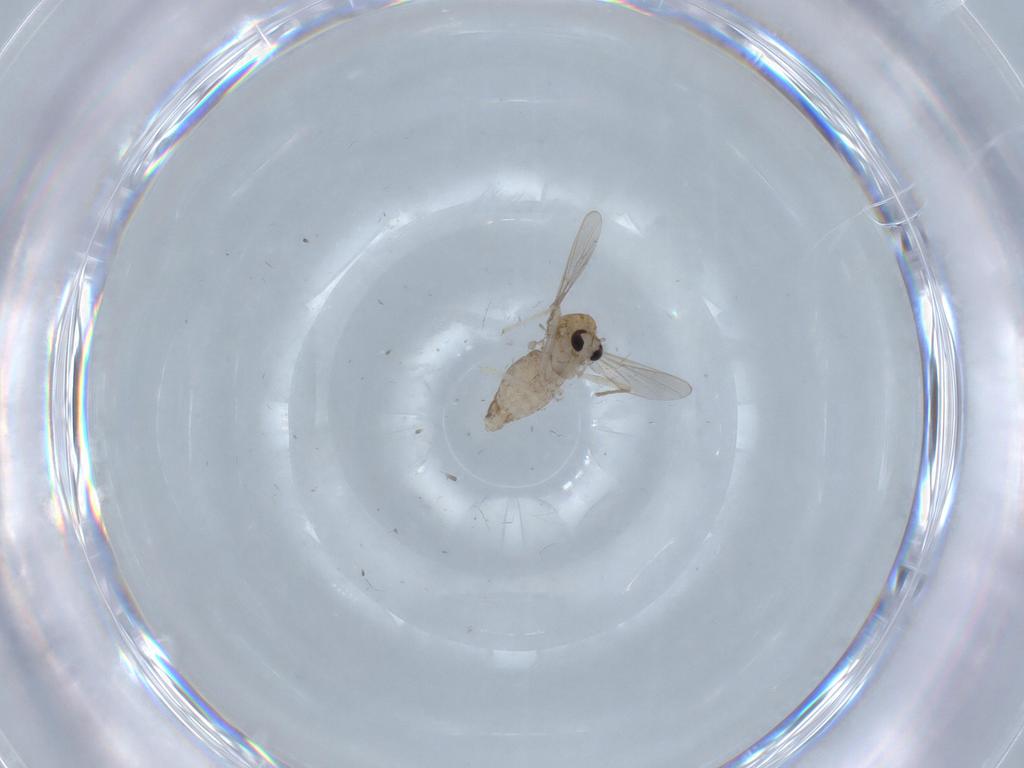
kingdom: Animalia
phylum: Arthropoda
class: Insecta
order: Diptera
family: Chironomidae
